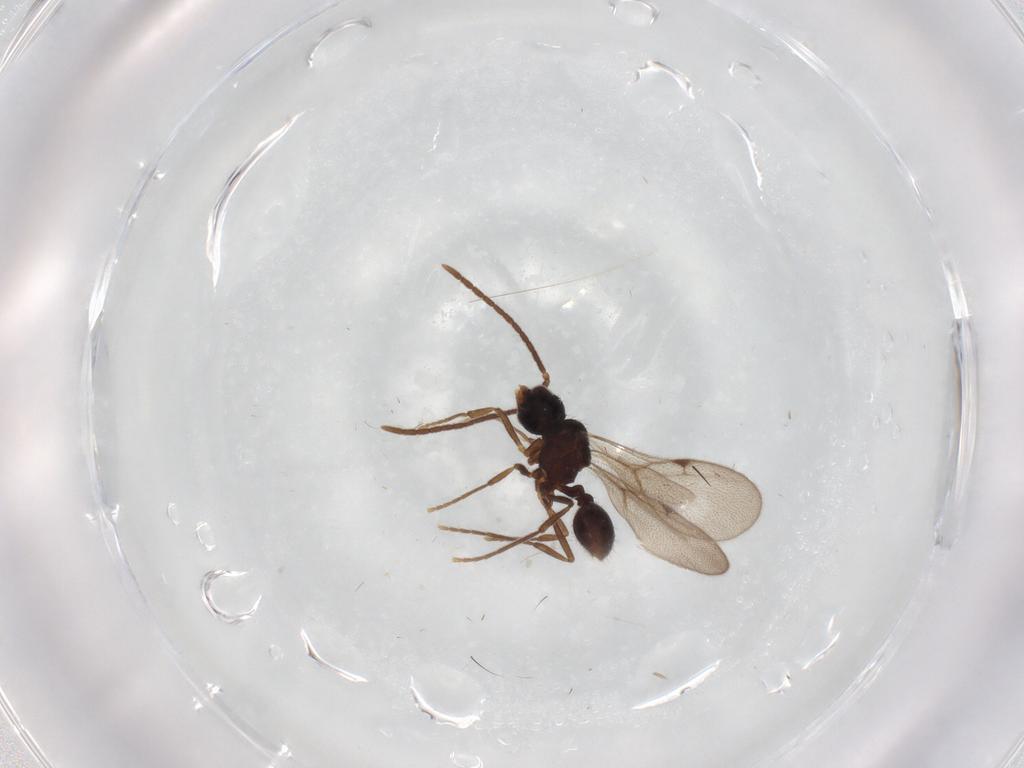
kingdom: Animalia
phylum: Arthropoda
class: Insecta
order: Hymenoptera
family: Formicidae
